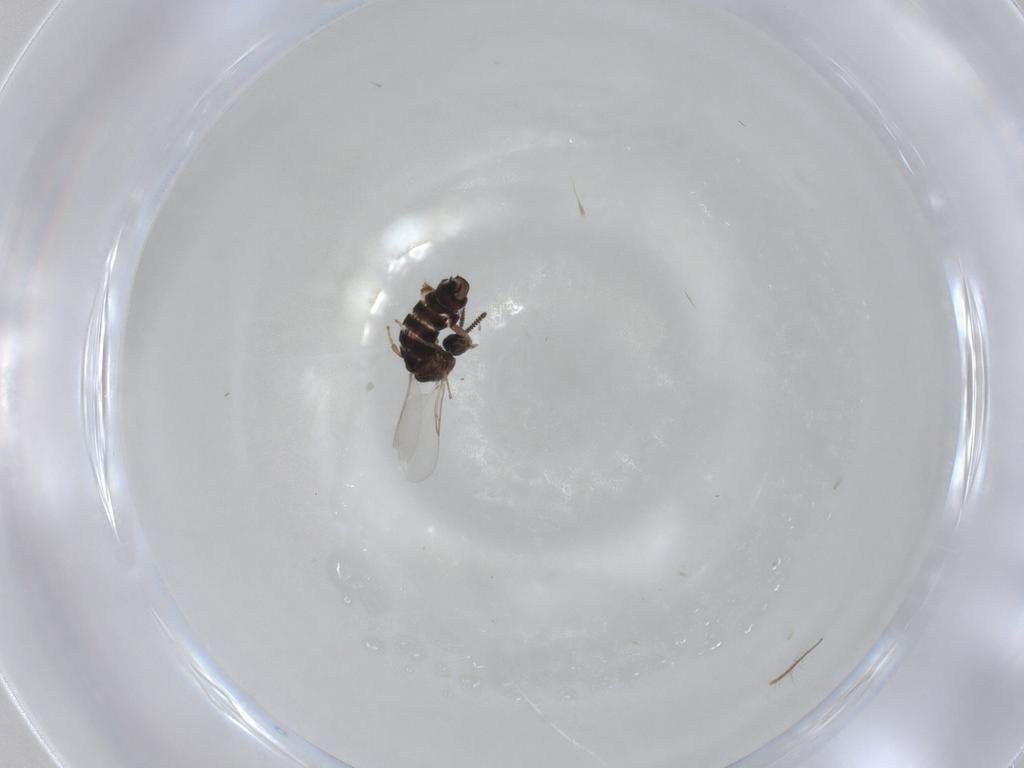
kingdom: Animalia
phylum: Arthropoda
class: Insecta
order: Diptera
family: Scatopsidae
